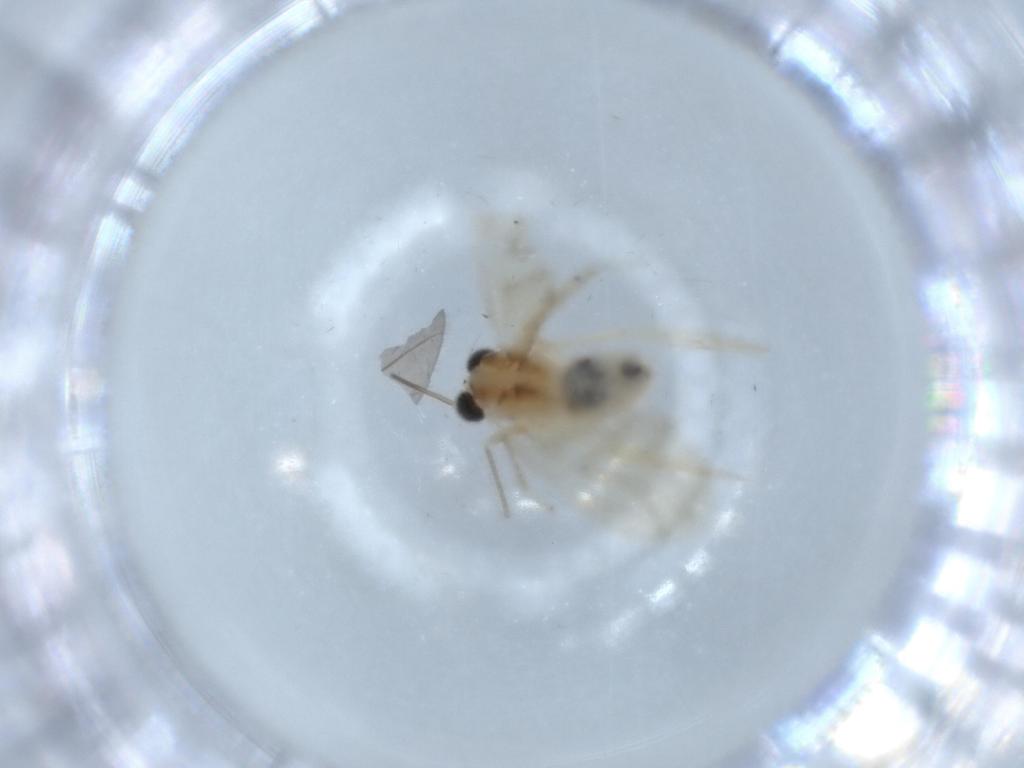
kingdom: Animalia
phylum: Arthropoda
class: Insecta
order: Psocodea
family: Caeciliusidae
